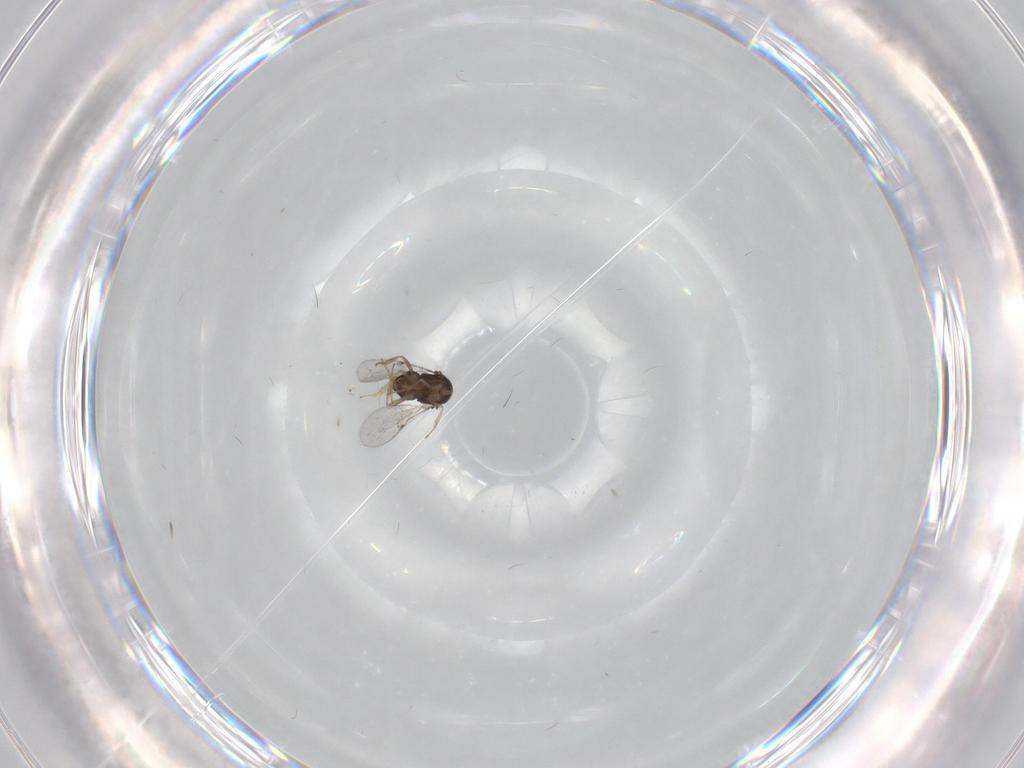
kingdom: Animalia
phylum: Arthropoda
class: Insecta
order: Diptera
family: Bibionidae
